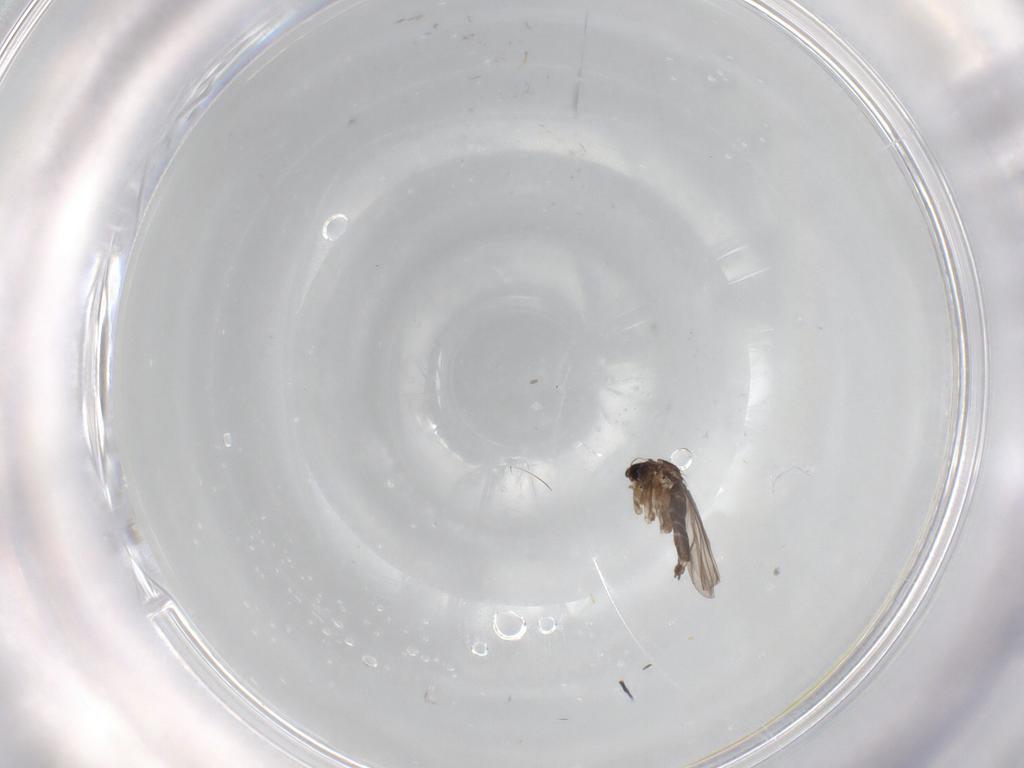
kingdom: Animalia
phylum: Arthropoda
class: Insecta
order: Diptera
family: Phoridae
